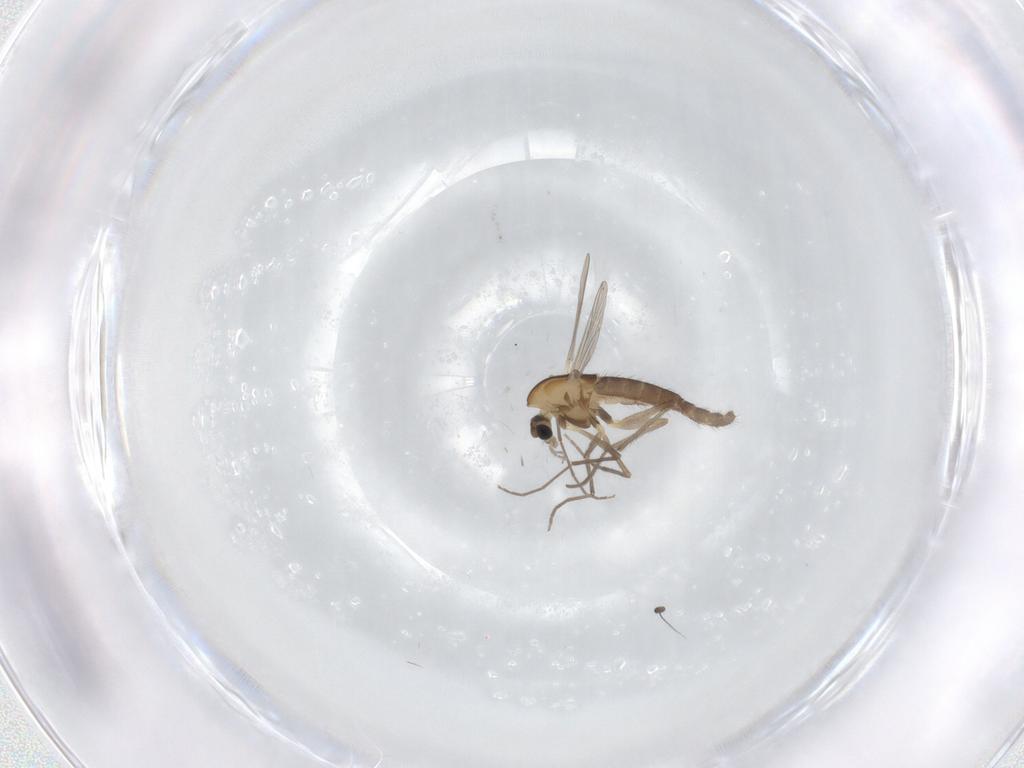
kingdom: Animalia
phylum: Arthropoda
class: Insecta
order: Diptera
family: Chironomidae
